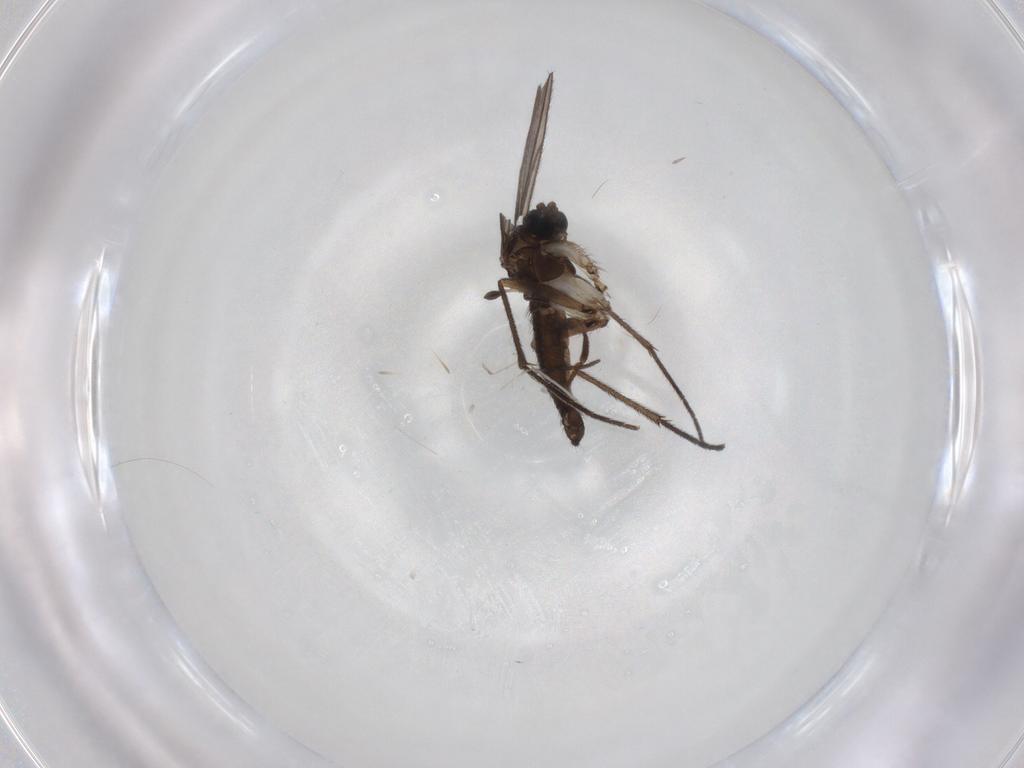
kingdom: Animalia
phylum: Arthropoda
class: Insecta
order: Diptera
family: Sciaridae
